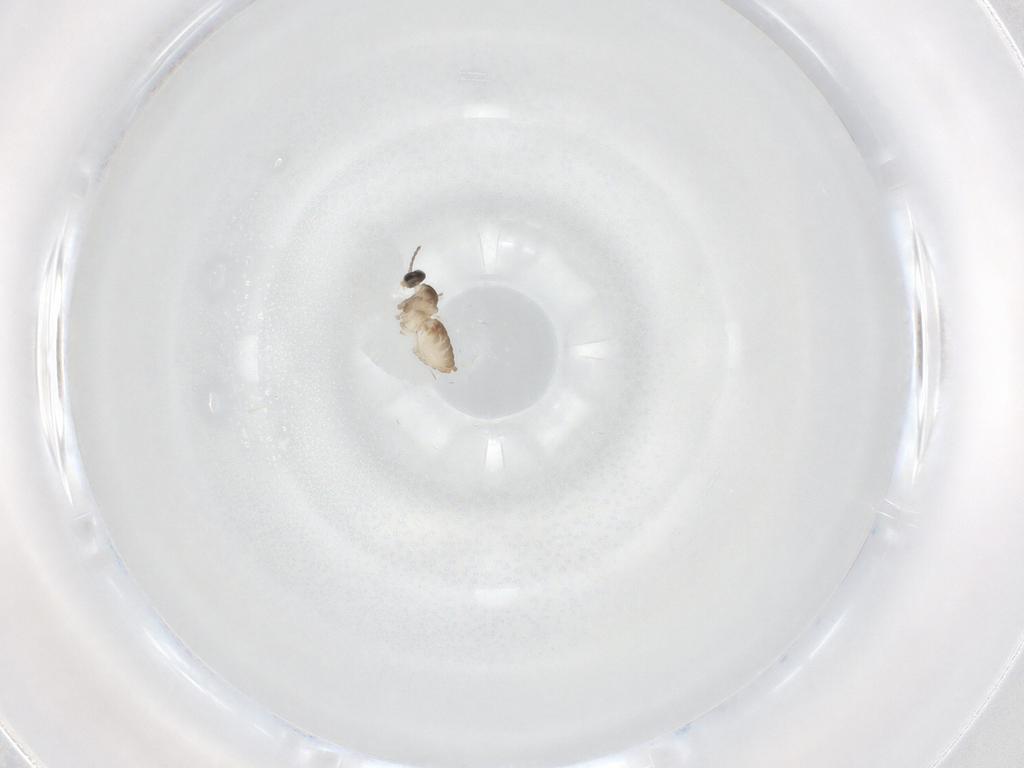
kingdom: Animalia
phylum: Arthropoda
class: Insecta
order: Diptera
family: Cecidomyiidae
